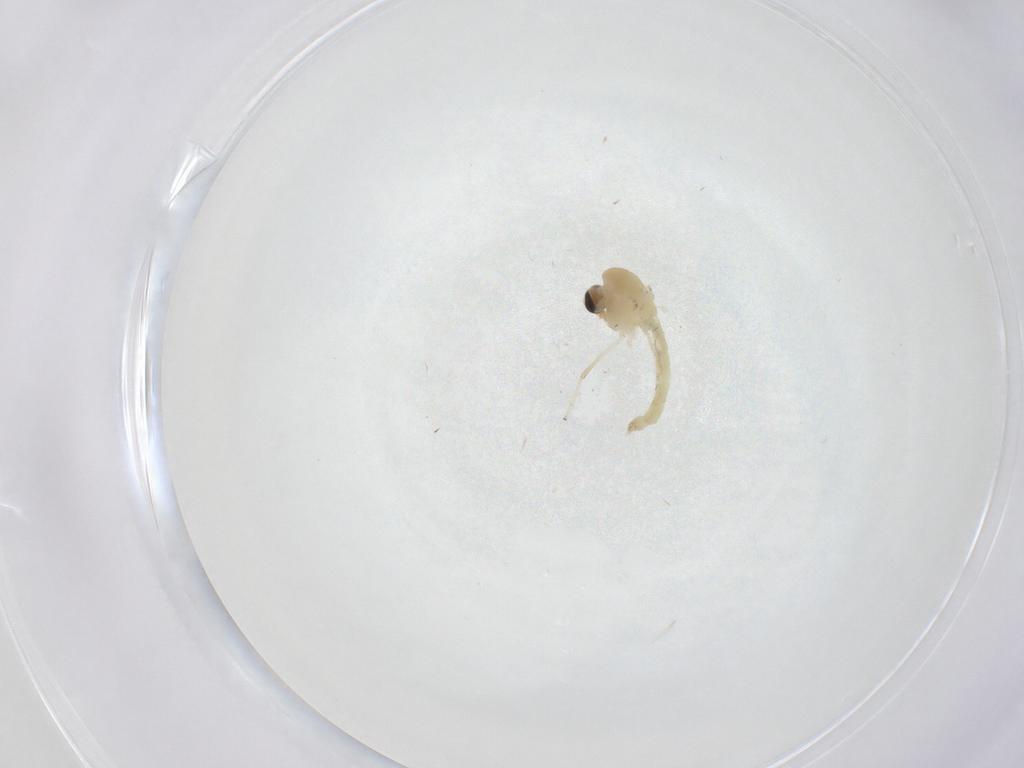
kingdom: Animalia
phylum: Arthropoda
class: Insecta
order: Diptera
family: Chironomidae
